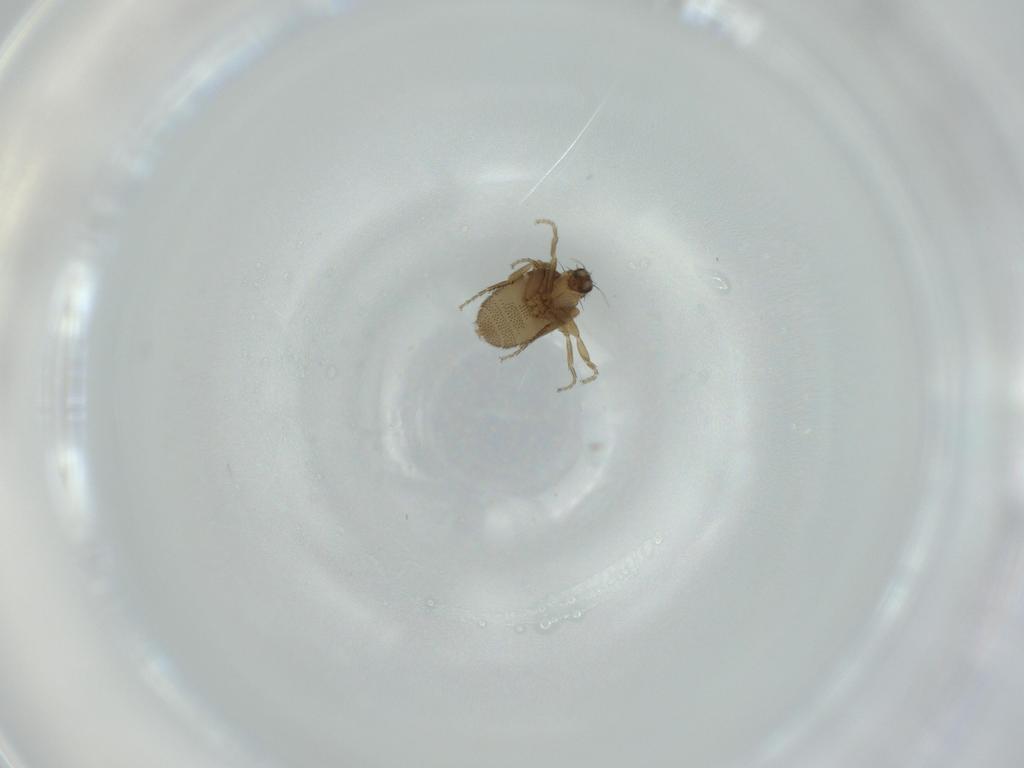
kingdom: Animalia
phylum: Arthropoda
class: Insecta
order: Diptera
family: Phoridae
